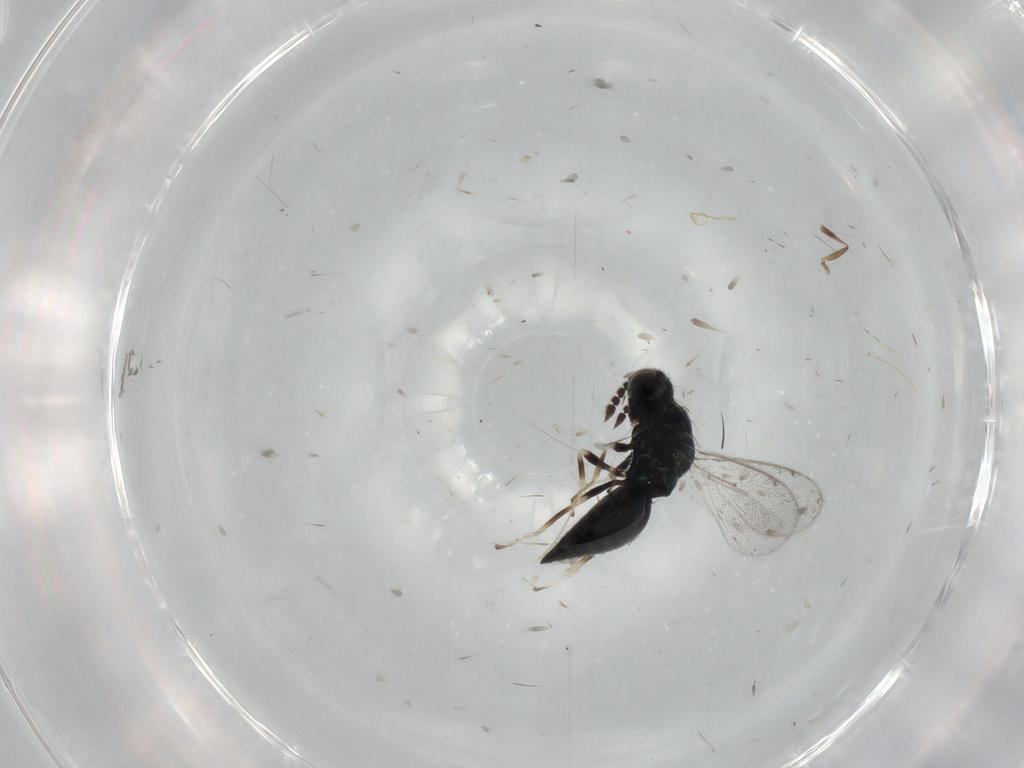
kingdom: Animalia
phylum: Arthropoda
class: Insecta
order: Hymenoptera
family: Eulophidae
